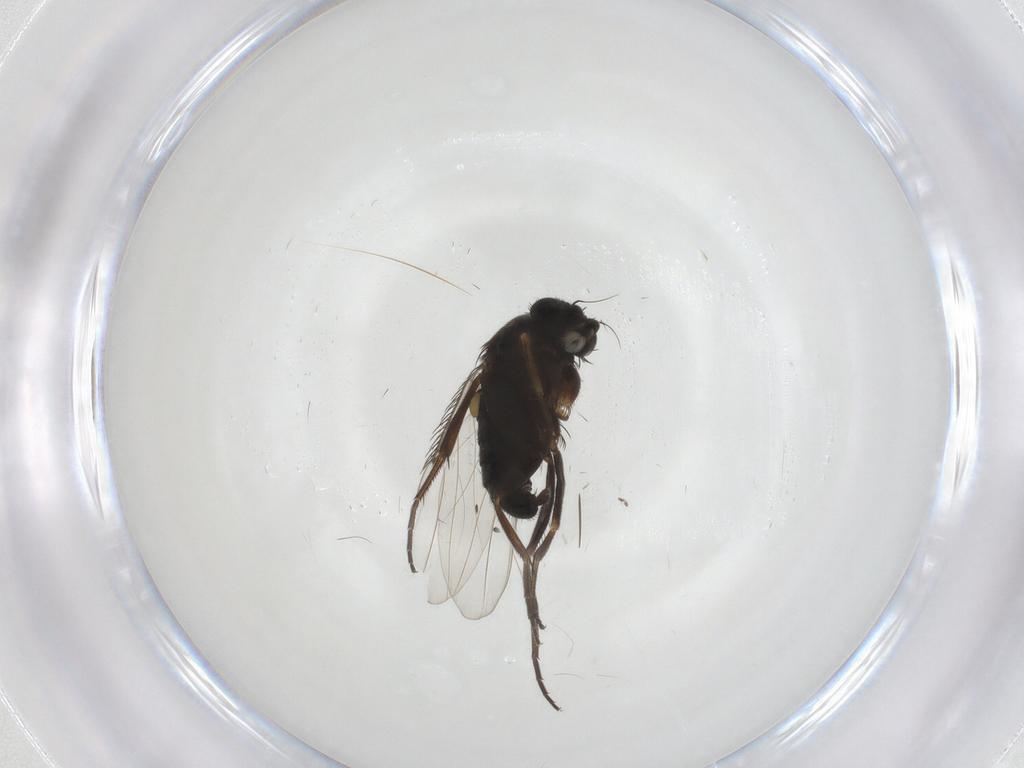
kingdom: Animalia
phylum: Arthropoda
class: Insecta
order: Diptera
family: Phoridae
